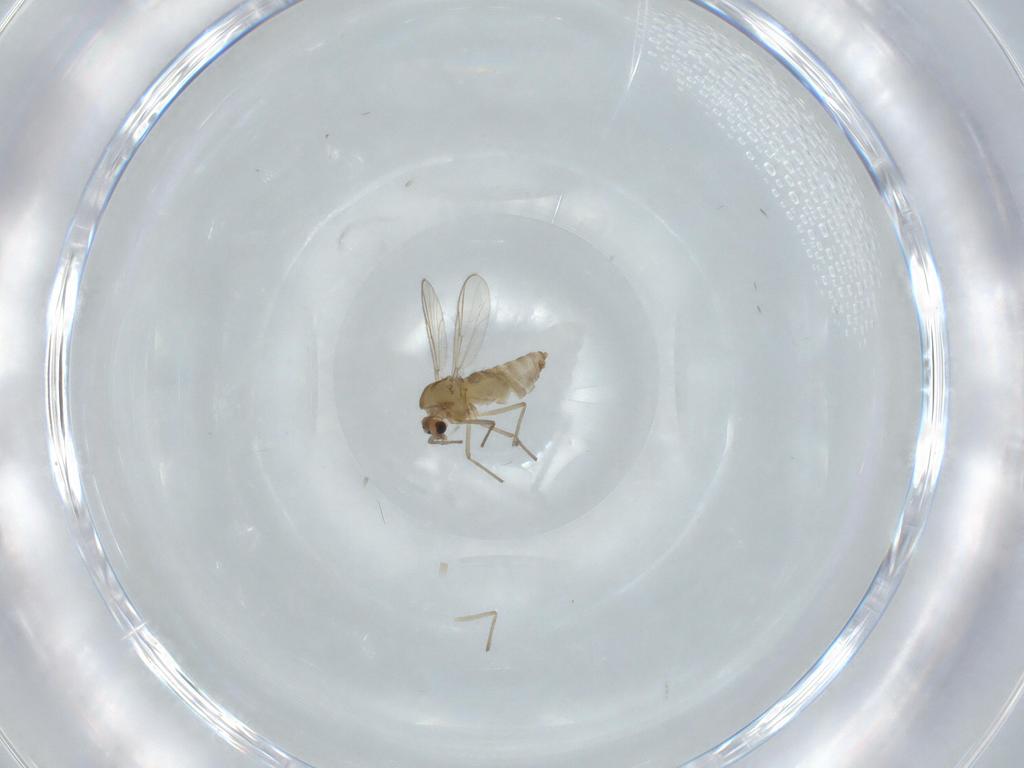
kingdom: Animalia
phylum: Arthropoda
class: Insecta
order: Diptera
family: Chironomidae
